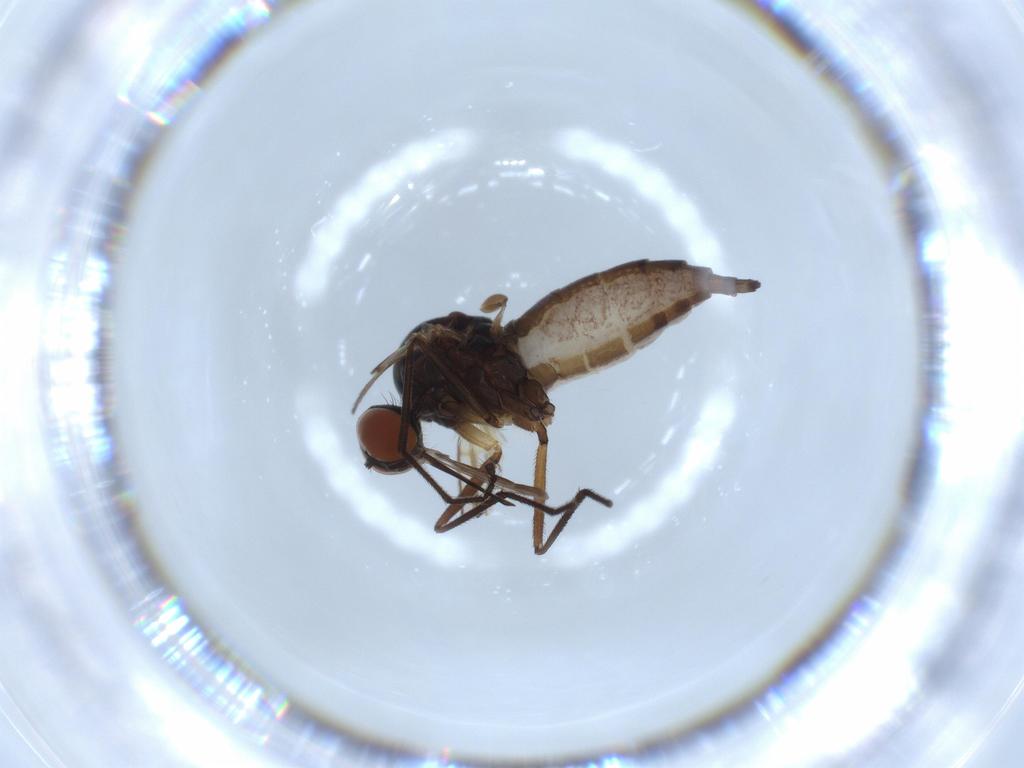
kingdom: Animalia
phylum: Arthropoda
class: Insecta
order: Diptera
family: Empididae
